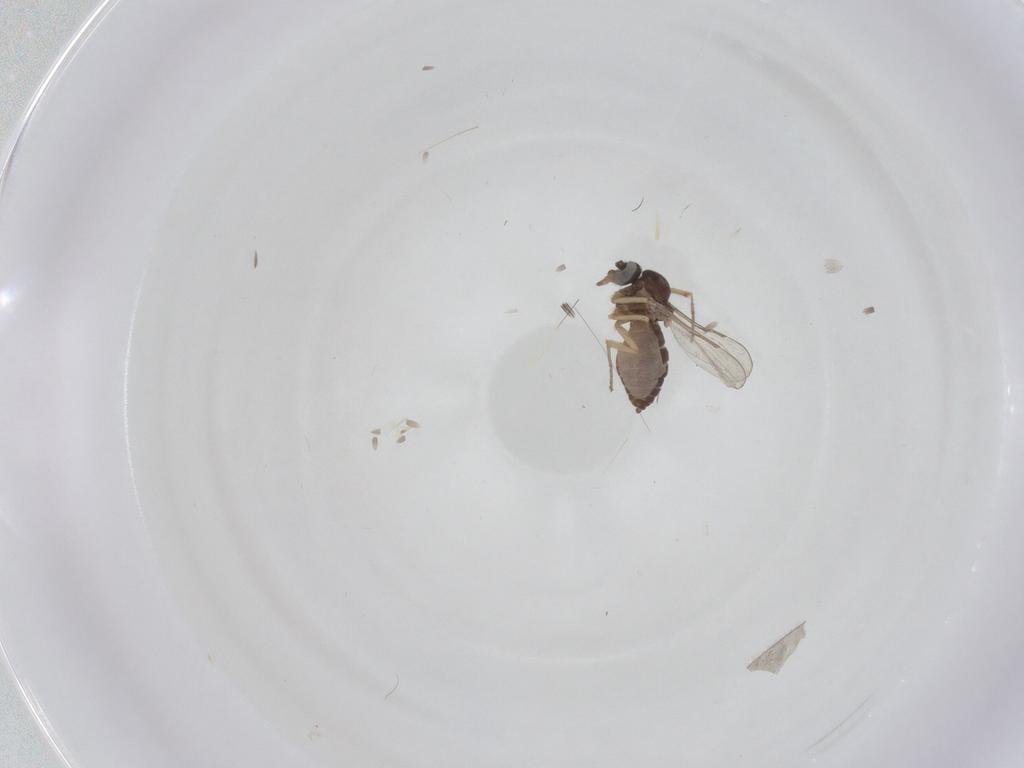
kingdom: Animalia
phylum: Arthropoda
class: Insecta
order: Diptera
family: Ceratopogonidae
